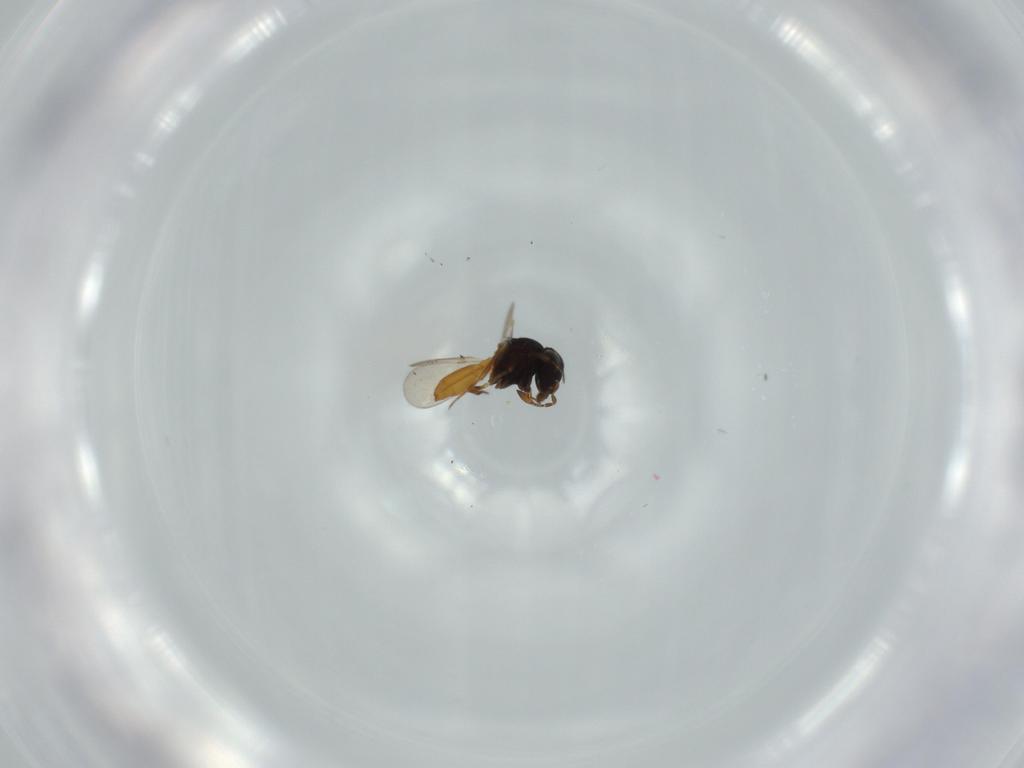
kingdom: Animalia
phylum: Arthropoda
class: Insecta
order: Hymenoptera
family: Scelionidae
